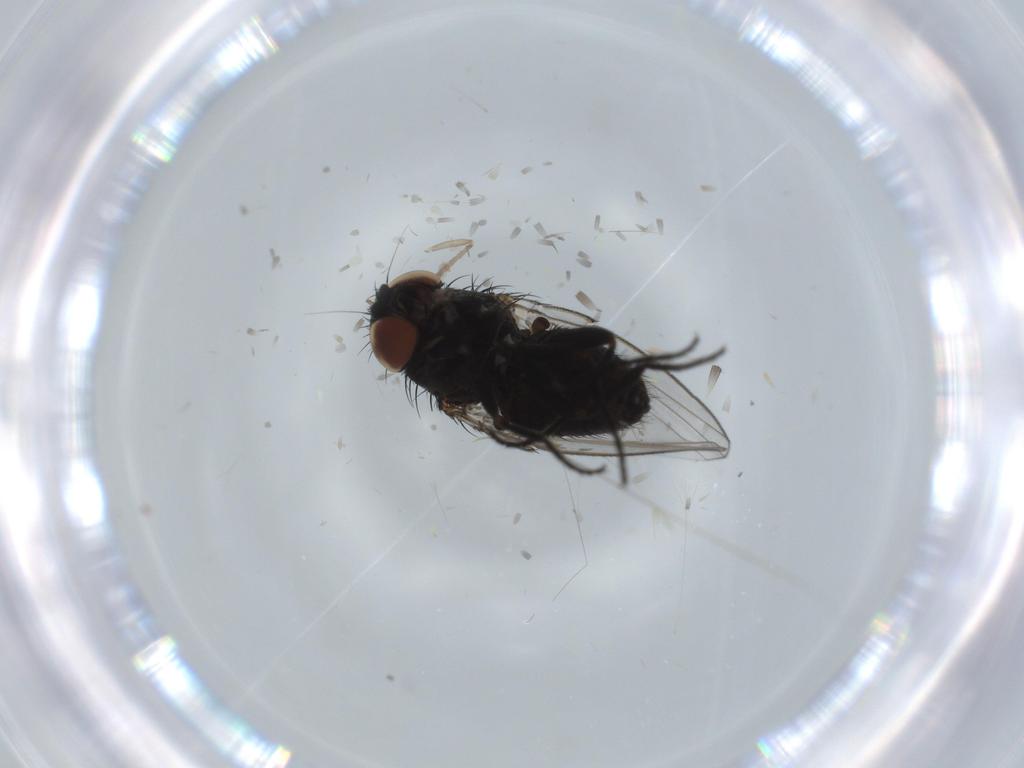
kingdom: Animalia
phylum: Arthropoda
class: Insecta
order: Diptera
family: Milichiidae
